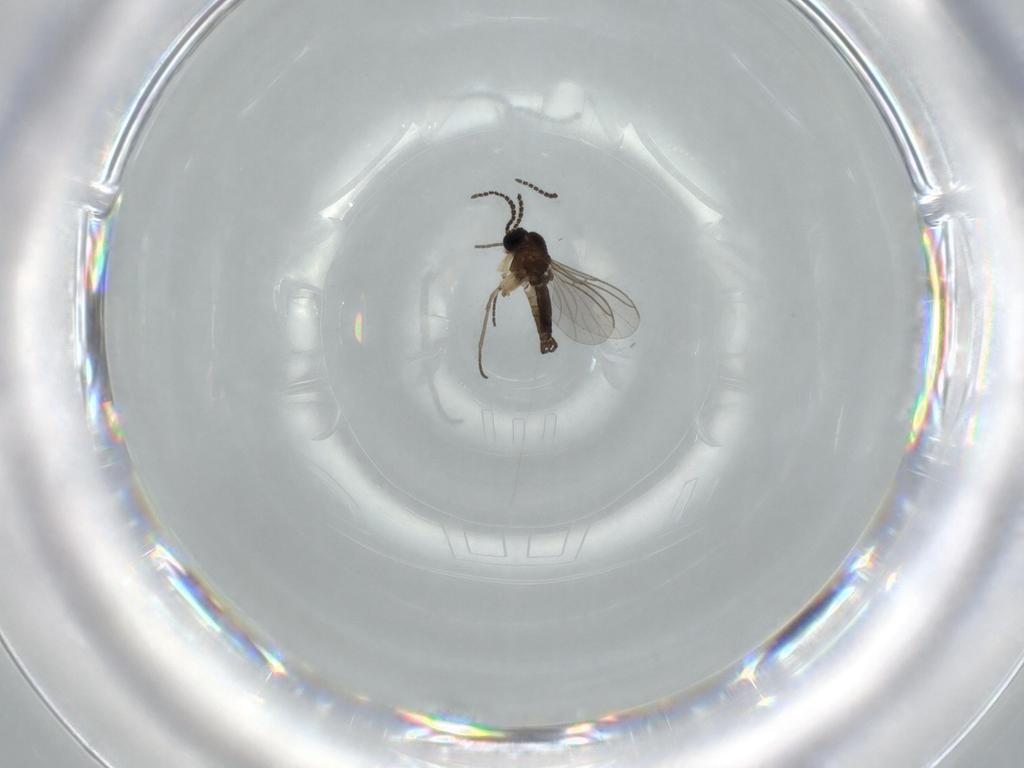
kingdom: Animalia
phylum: Arthropoda
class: Insecta
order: Diptera
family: Sciaridae
